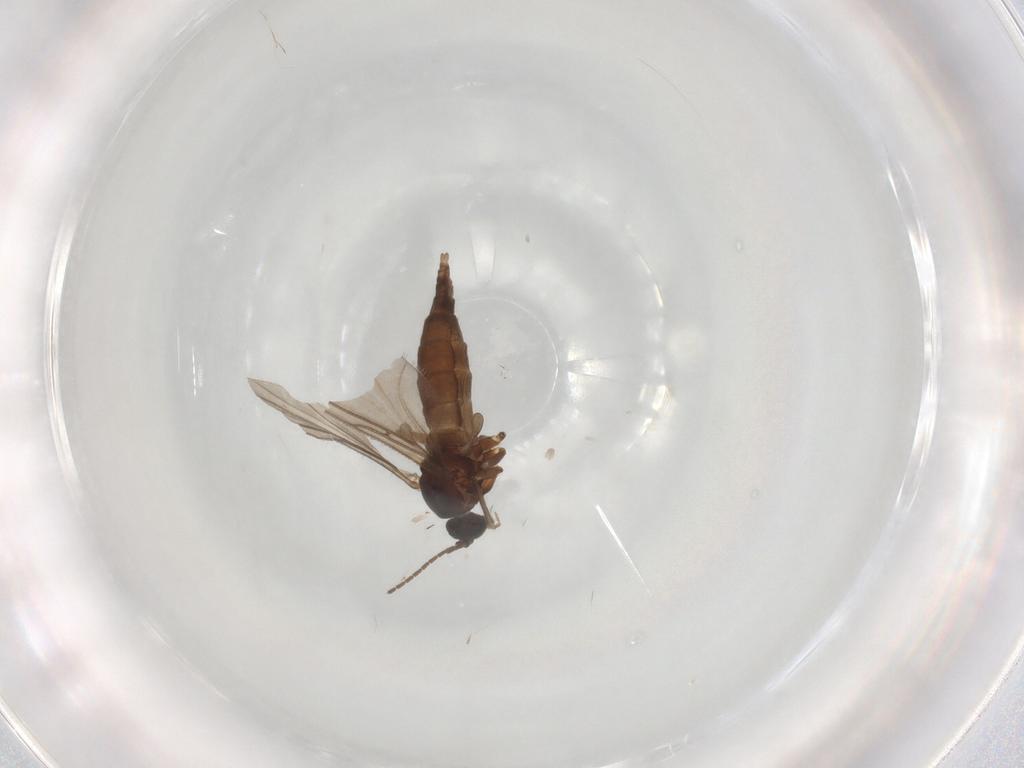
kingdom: Animalia
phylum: Arthropoda
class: Insecta
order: Diptera
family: Sciaridae
